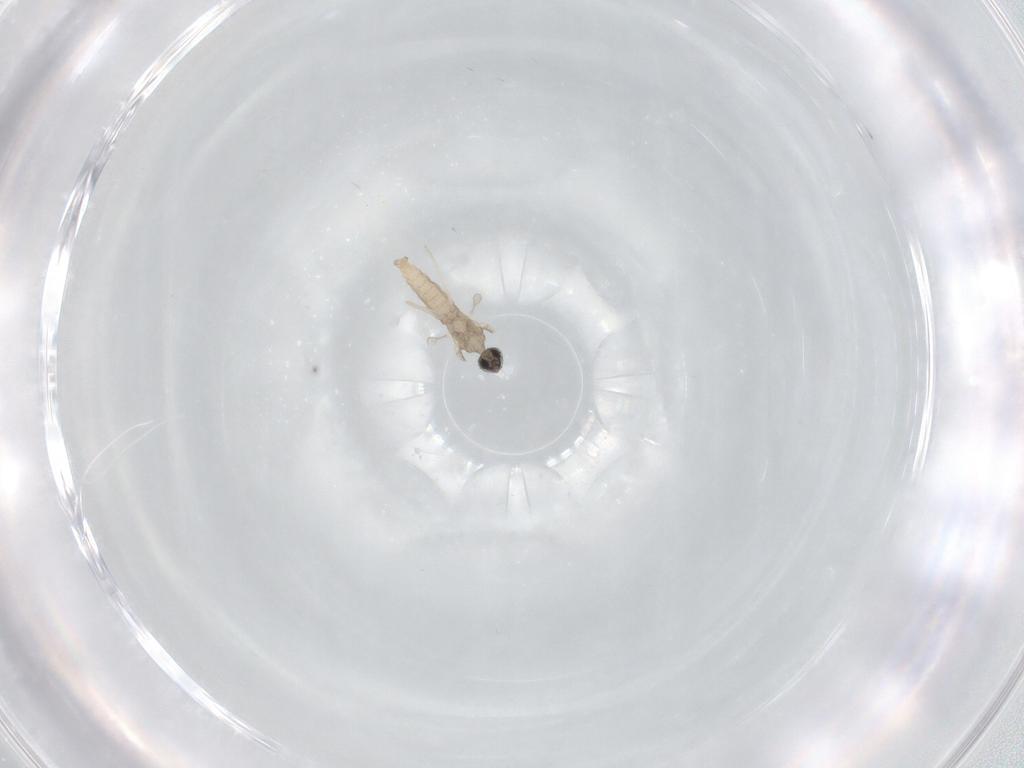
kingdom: Animalia
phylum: Arthropoda
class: Insecta
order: Diptera
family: Cecidomyiidae
